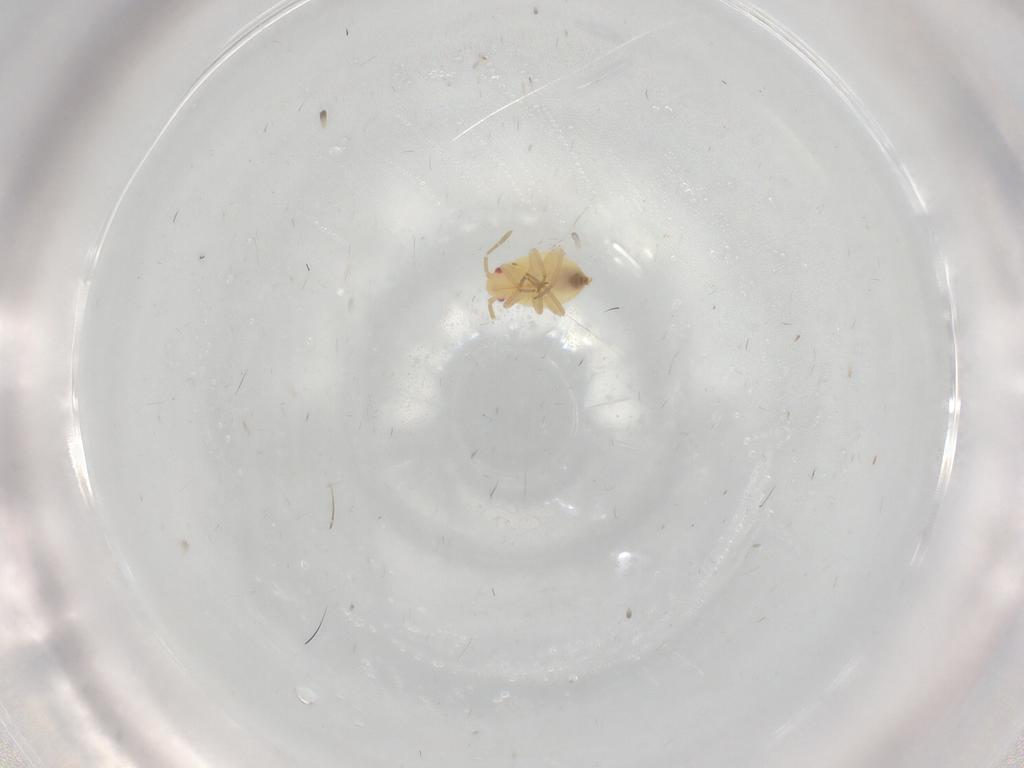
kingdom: Animalia
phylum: Arthropoda
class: Insecta
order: Hemiptera
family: Miridae
